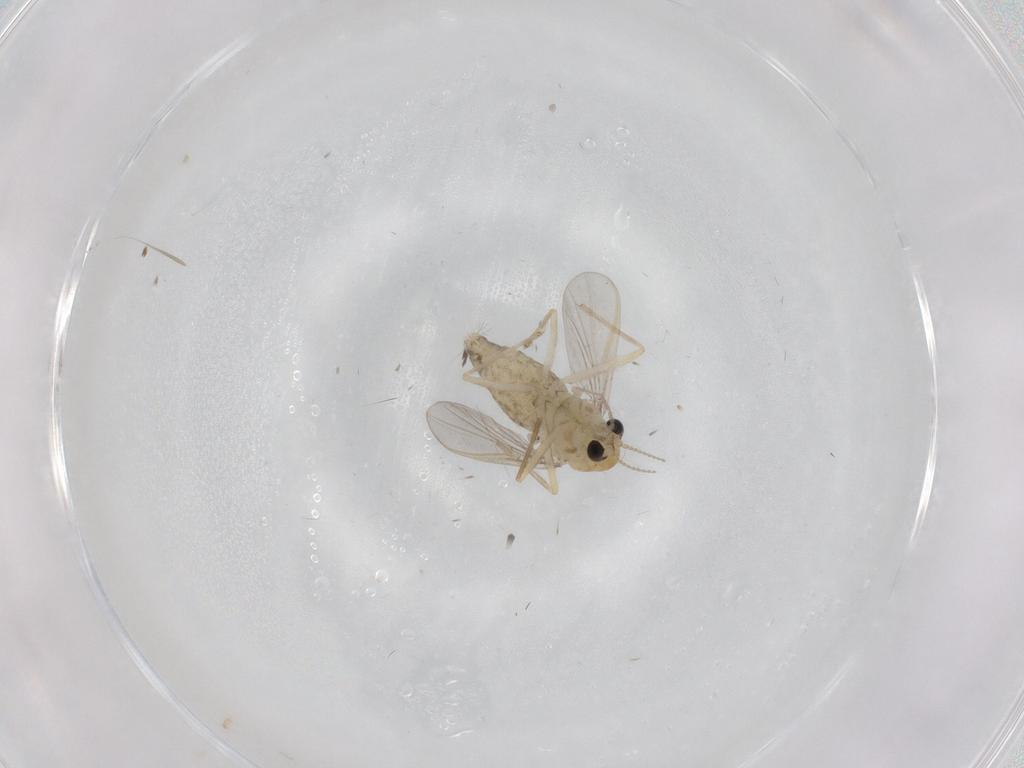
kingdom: Animalia
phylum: Arthropoda
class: Insecta
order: Diptera
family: Chironomidae
